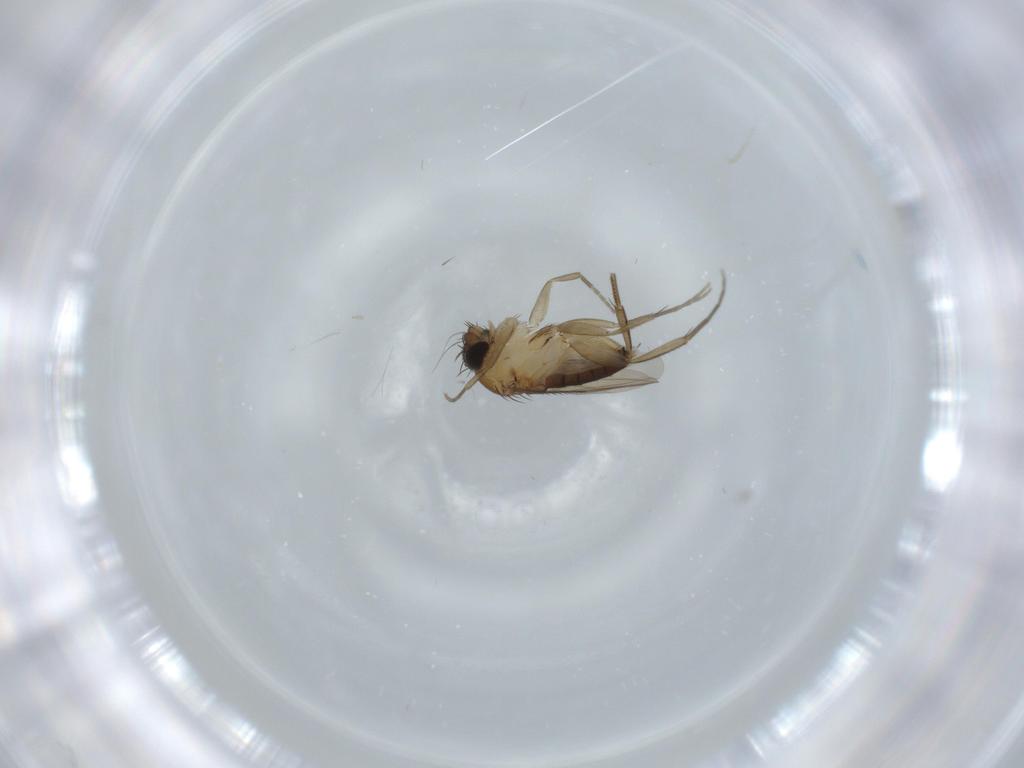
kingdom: Animalia
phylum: Arthropoda
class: Insecta
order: Diptera
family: Phoridae
